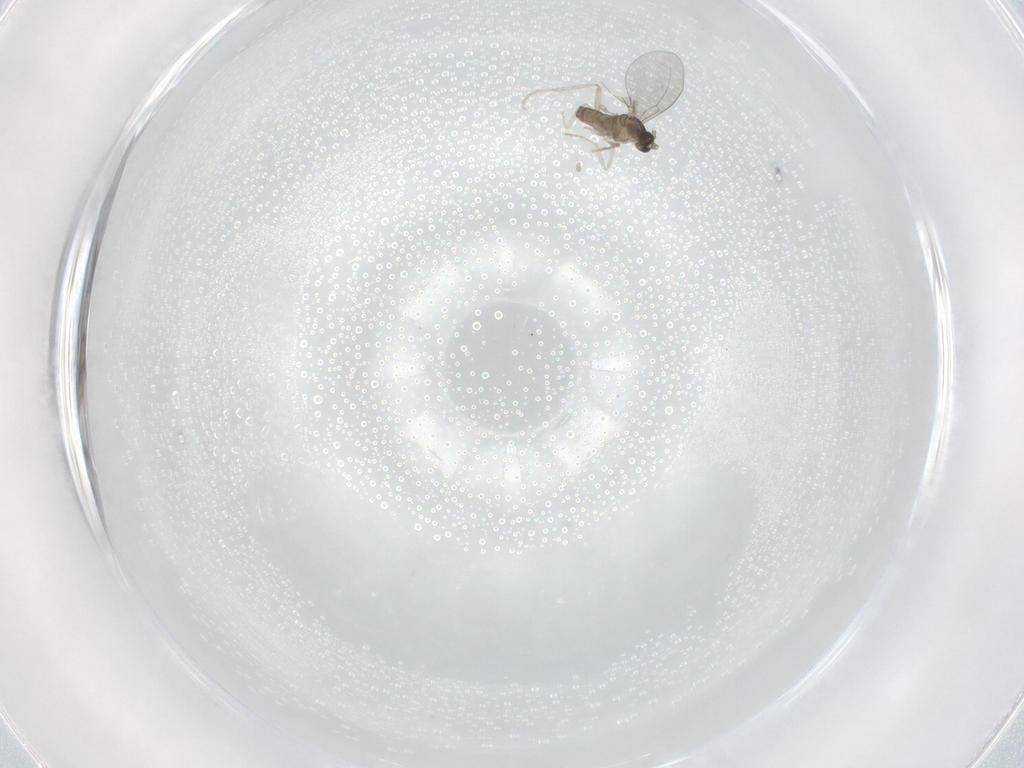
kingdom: Animalia
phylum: Arthropoda
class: Insecta
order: Diptera
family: Cecidomyiidae
